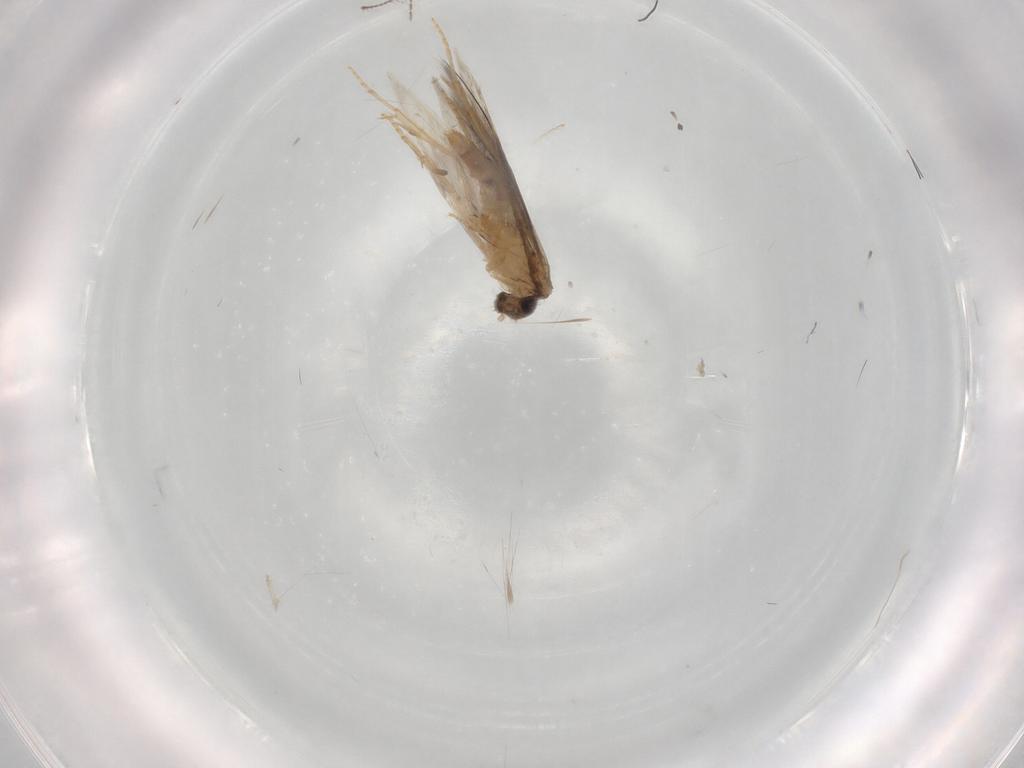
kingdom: Animalia
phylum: Arthropoda
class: Insecta
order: Trichoptera
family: Hydroptilidae
